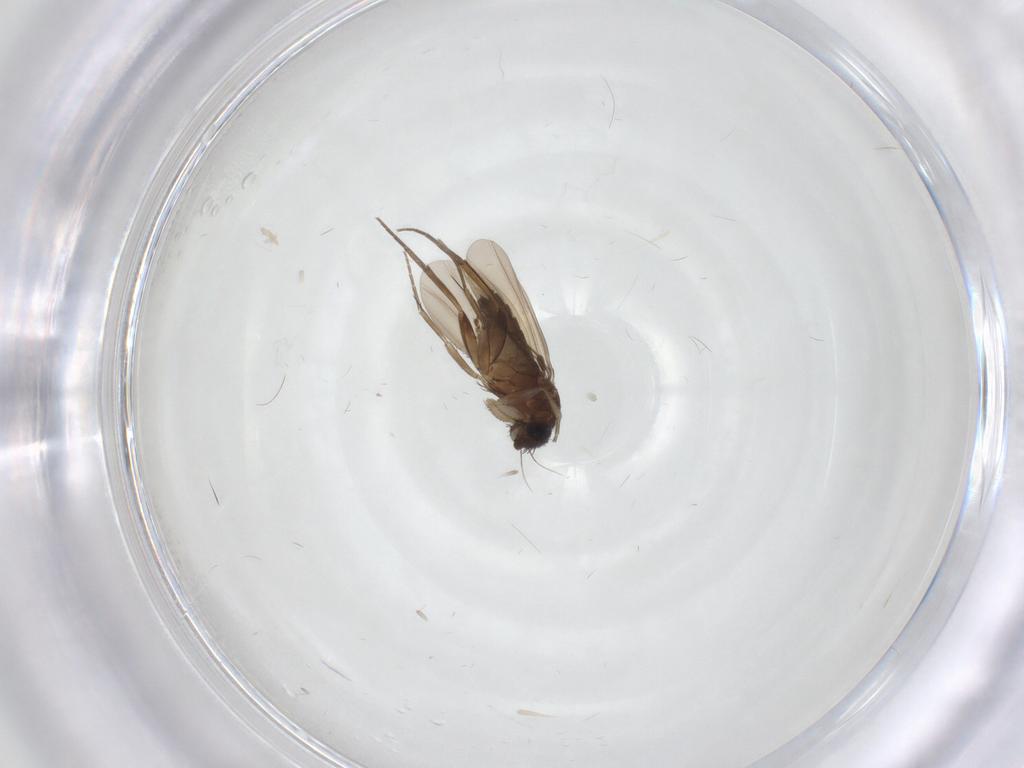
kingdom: Animalia
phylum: Arthropoda
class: Insecta
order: Diptera
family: Phoridae
